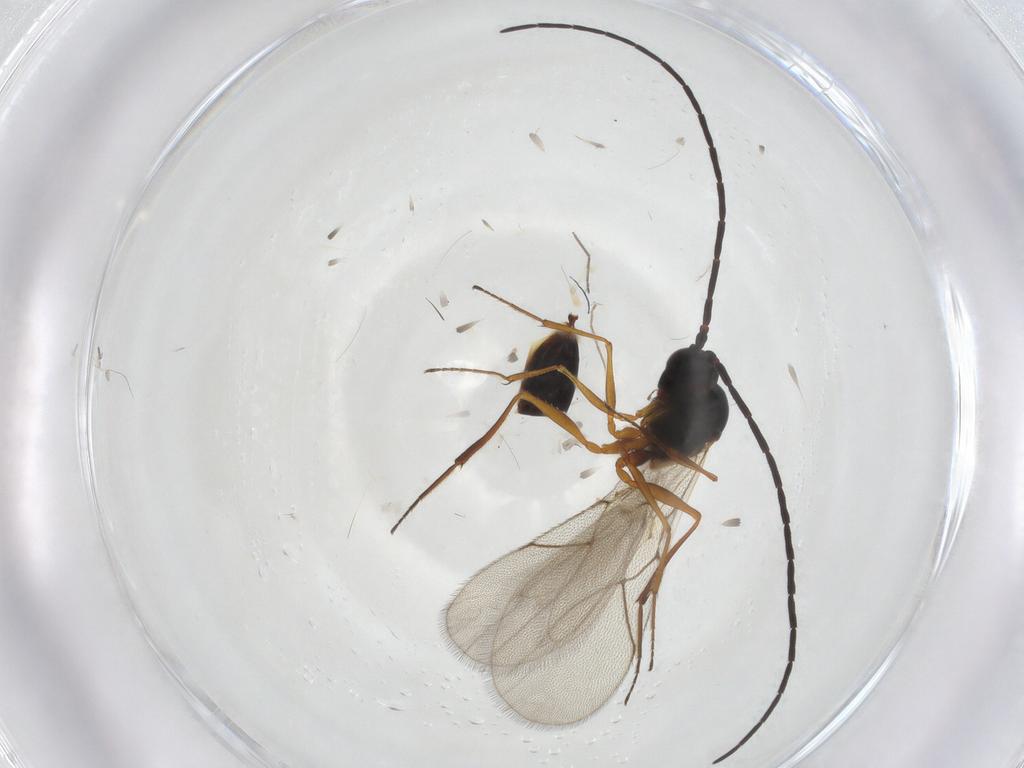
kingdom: Animalia
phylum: Arthropoda
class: Insecta
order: Hymenoptera
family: Figitidae
